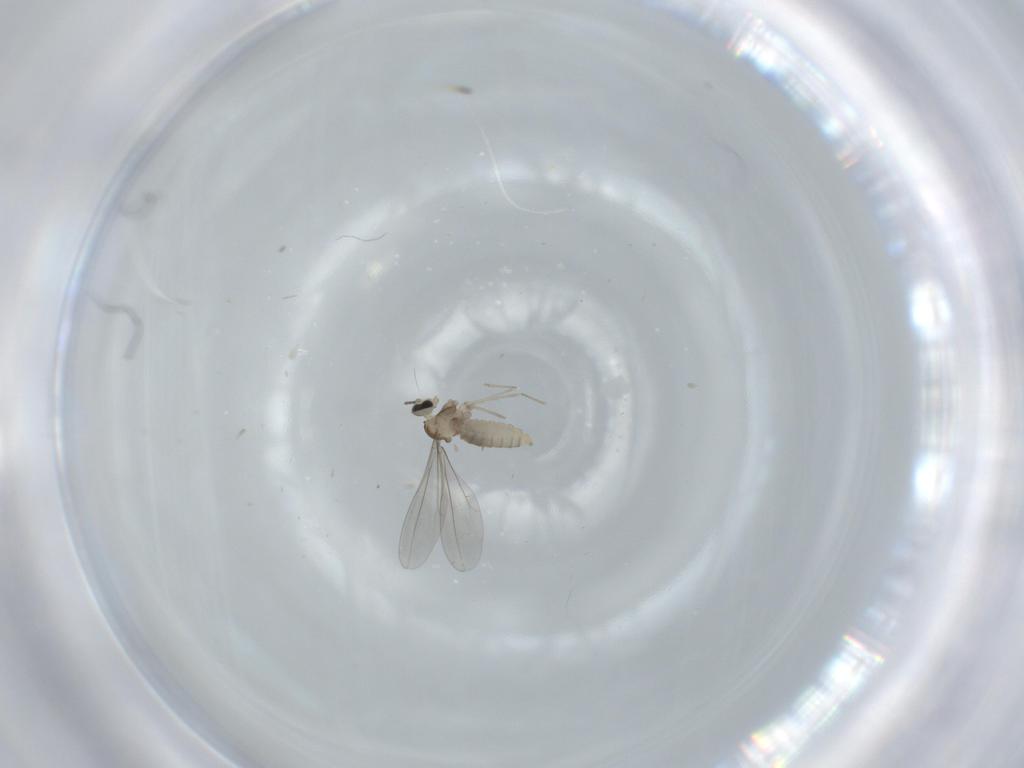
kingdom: Animalia
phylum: Arthropoda
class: Insecta
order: Diptera
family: Cecidomyiidae
